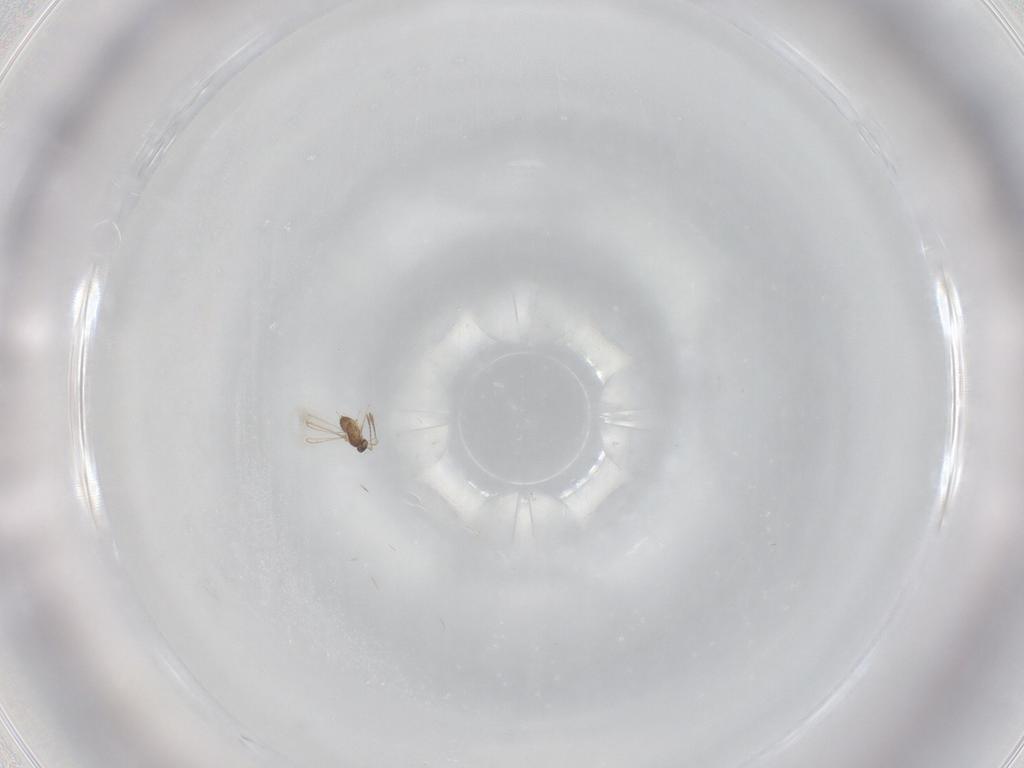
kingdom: Animalia
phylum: Arthropoda
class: Insecta
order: Hymenoptera
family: Mymaridae
